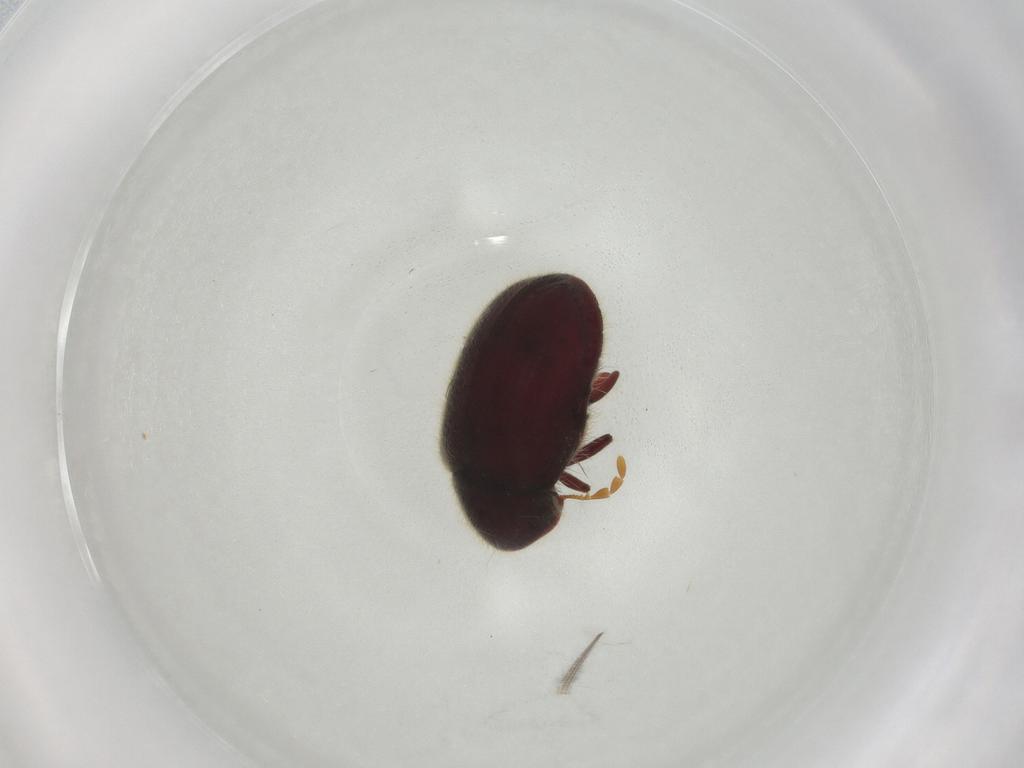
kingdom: Animalia
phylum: Arthropoda
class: Insecta
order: Coleoptera
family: Ptinidae
